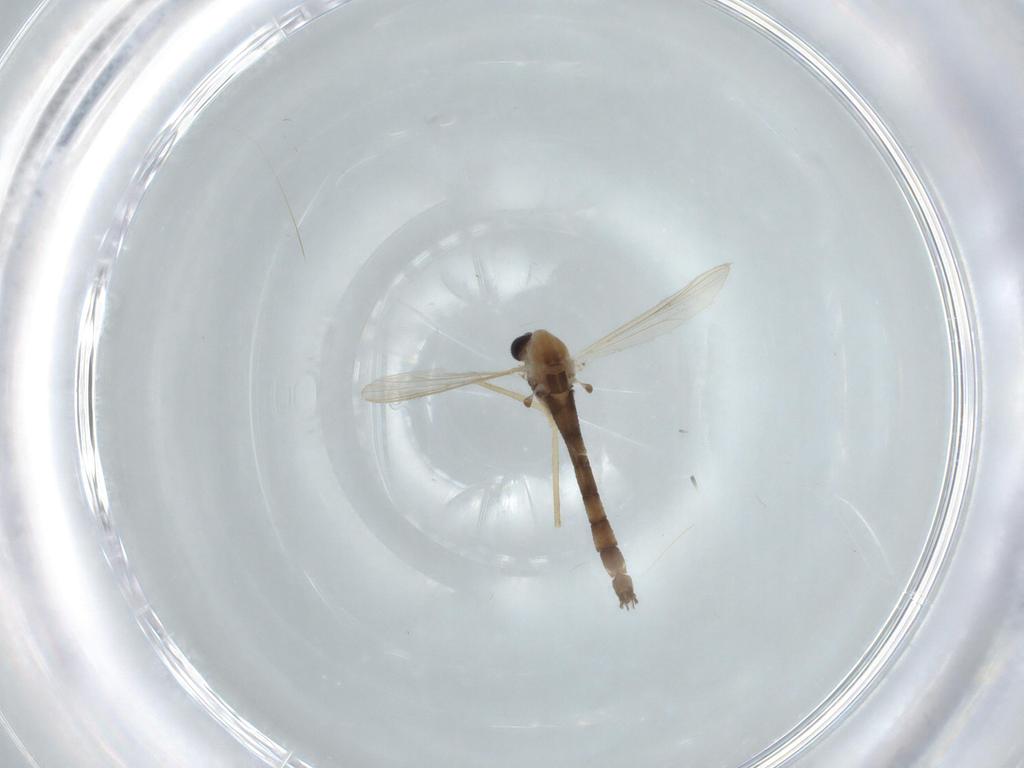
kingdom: Animalia
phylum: Arthropoda
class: Insecta
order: Diptera
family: Chironomidae
